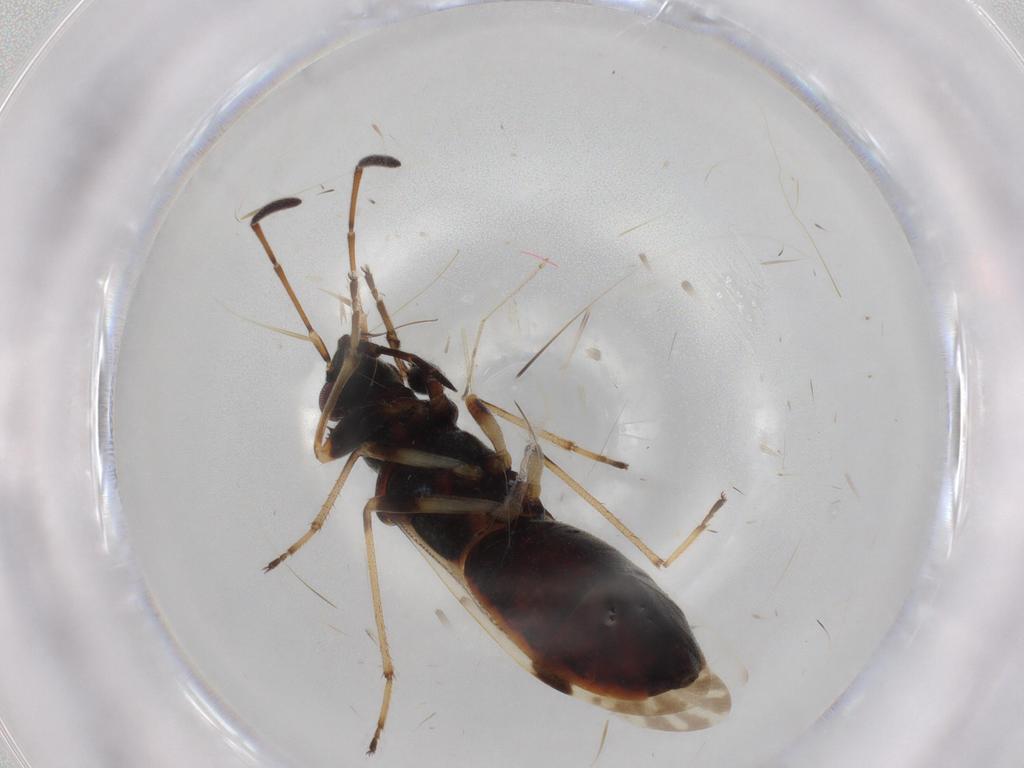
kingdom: Animalia
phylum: Arthropoda
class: Insecta
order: Hemiptera
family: Rhyparochromidae
